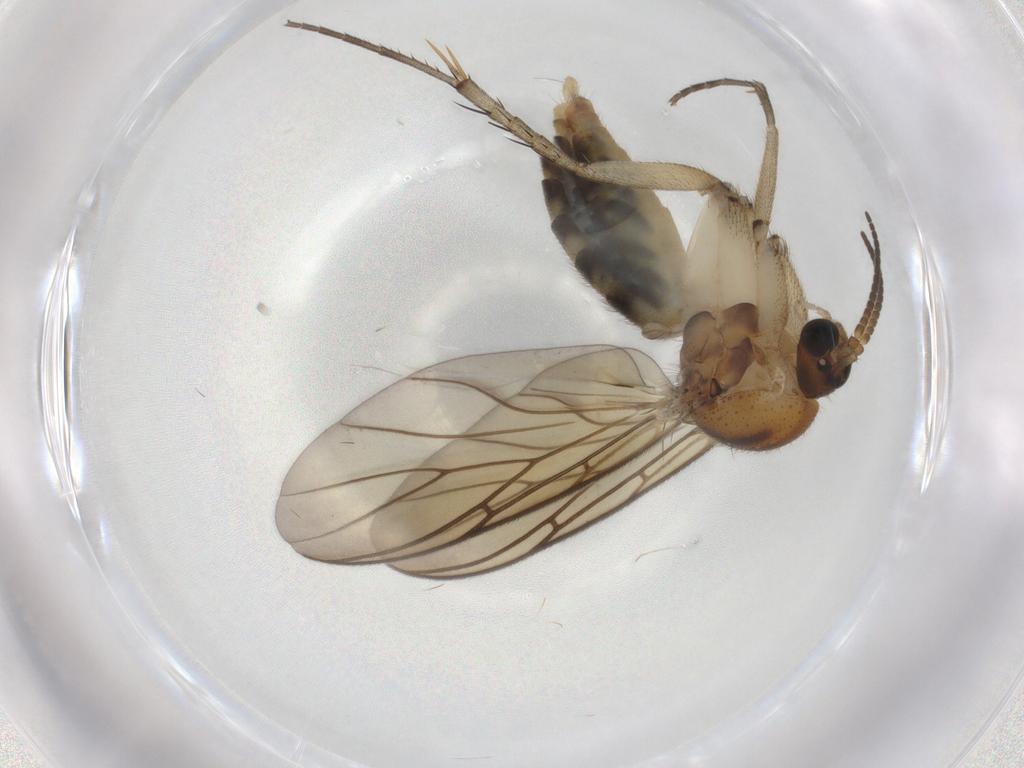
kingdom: Animalia
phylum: Arthropoda
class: Insecta
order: Diptera
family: Mycetophilidae
